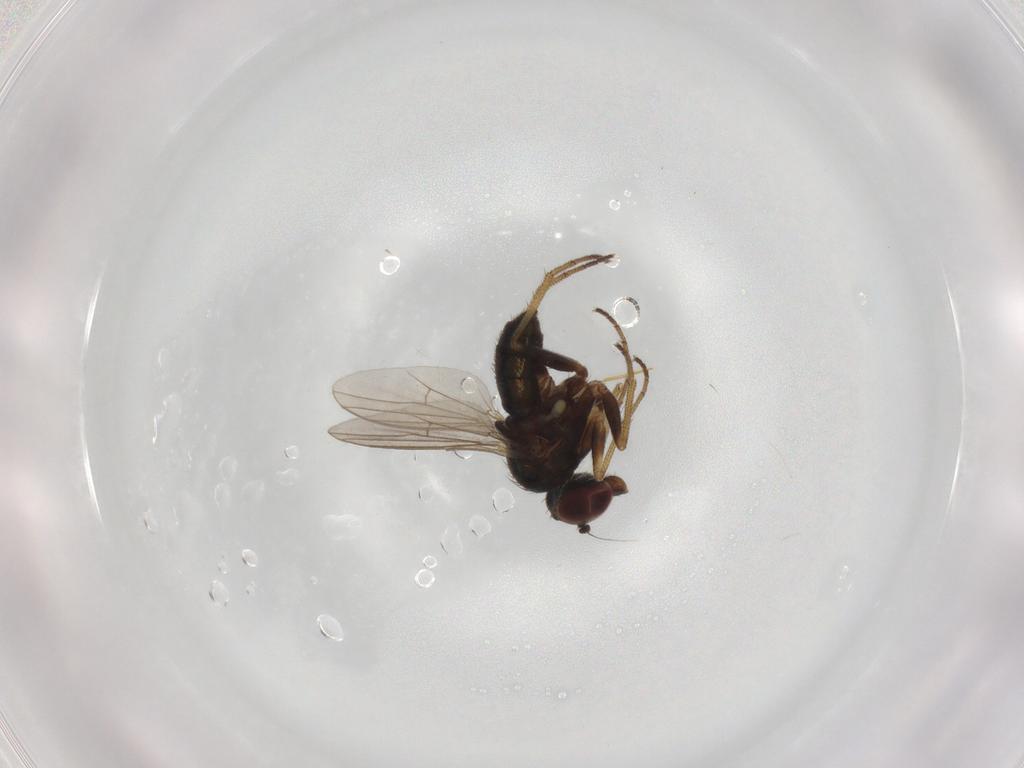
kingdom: Animalia
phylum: Arthropoda
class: Insecta
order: Diptera
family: Dolichopodidae
